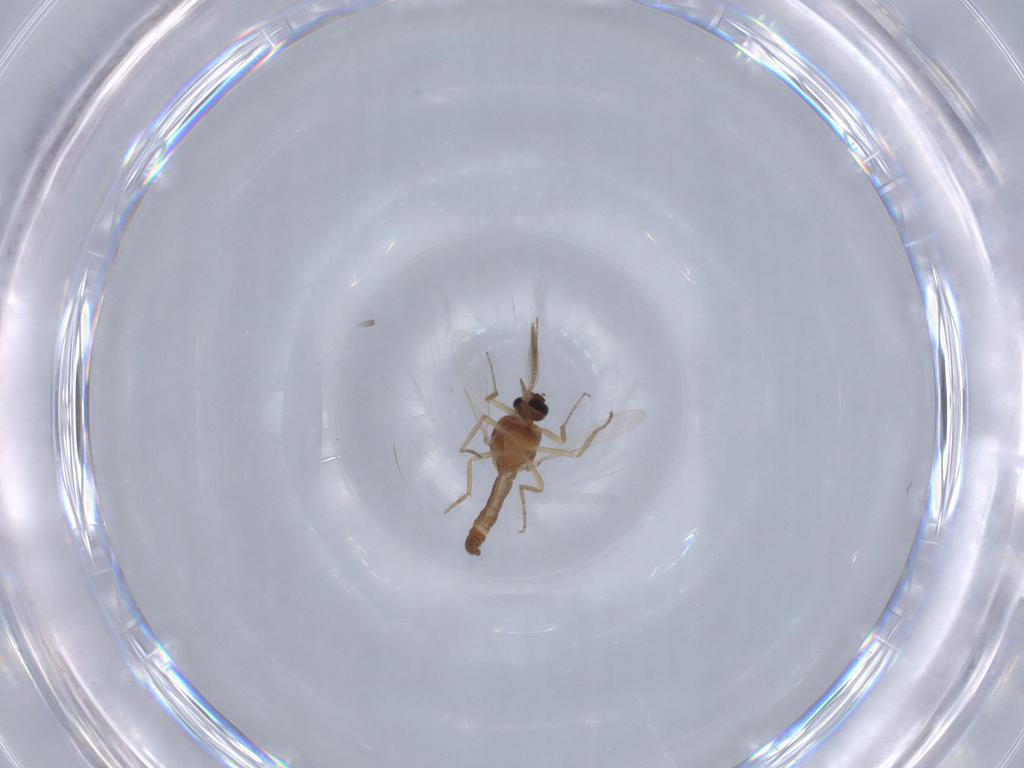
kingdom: Animalia
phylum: Arthropoda
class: Insecta
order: Diptera
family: Ceratopogonidae
